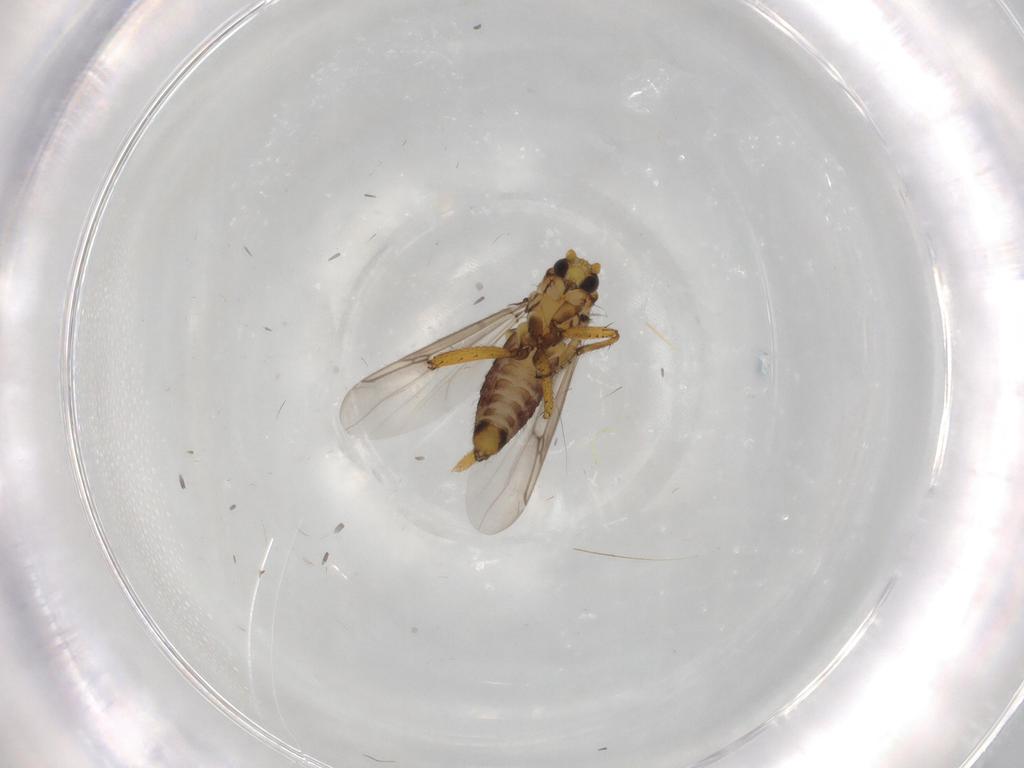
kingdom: Animalia
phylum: Arthropoda
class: Insecta
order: Diptera
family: Ceratopogonidae
